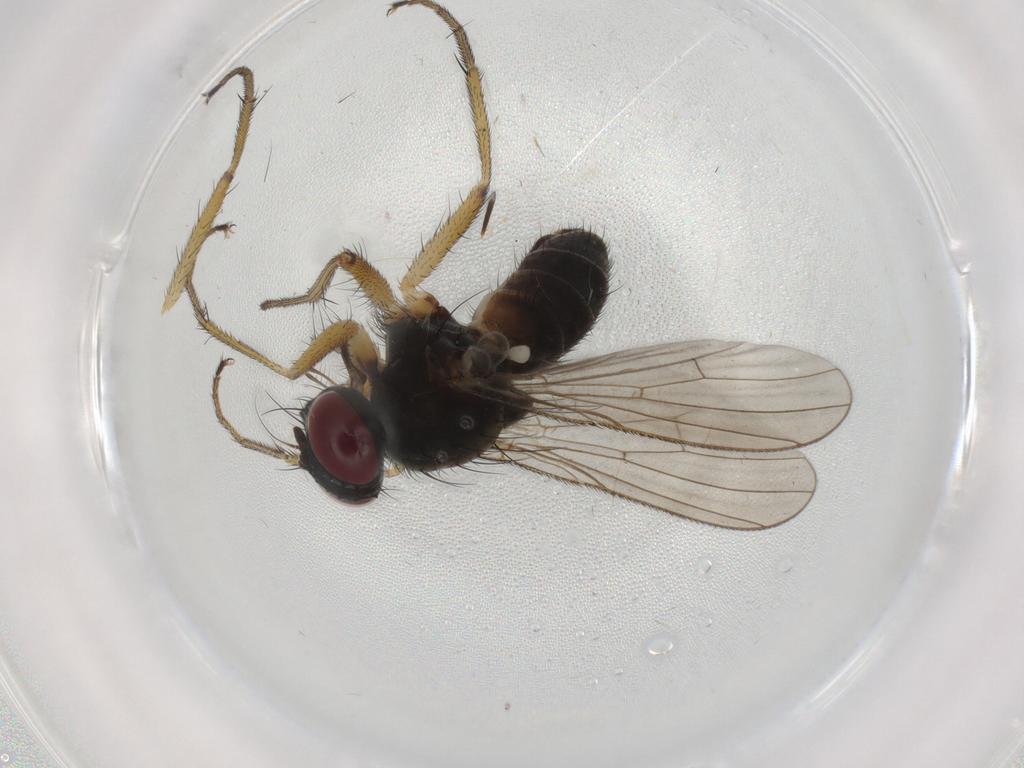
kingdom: Animalia
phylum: Arthropoda
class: Insecta
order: Diptera
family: Muscidae
